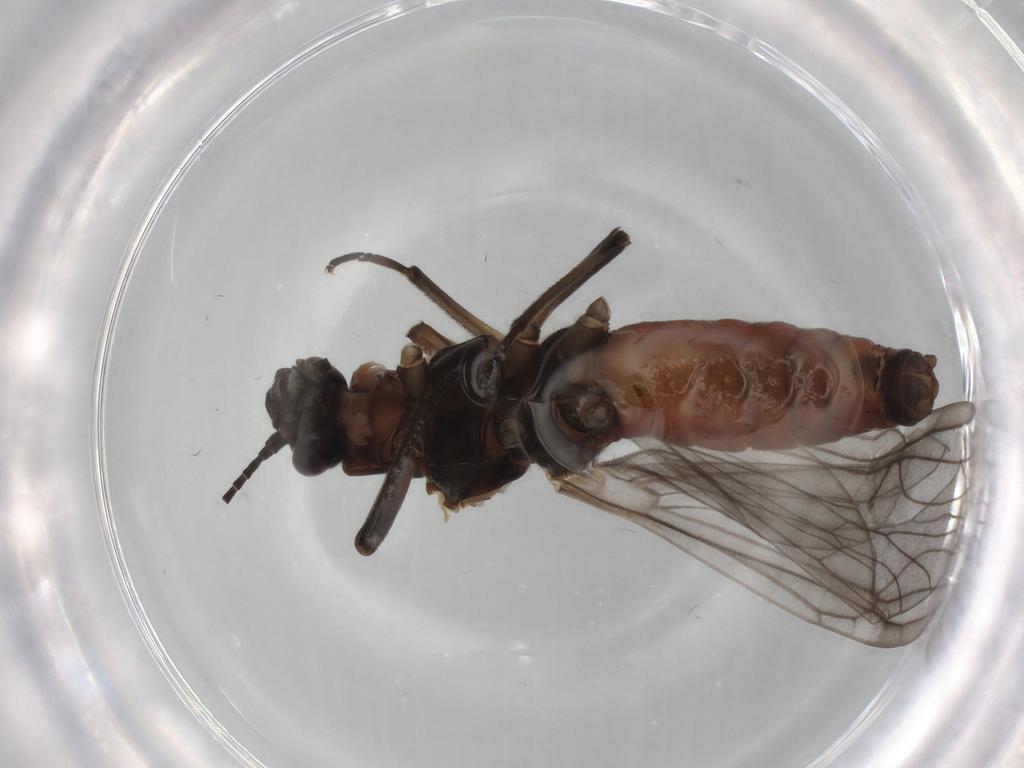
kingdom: Animalia
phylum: Arthropoda
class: Insecta
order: Plecoptera
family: Nemouridae
